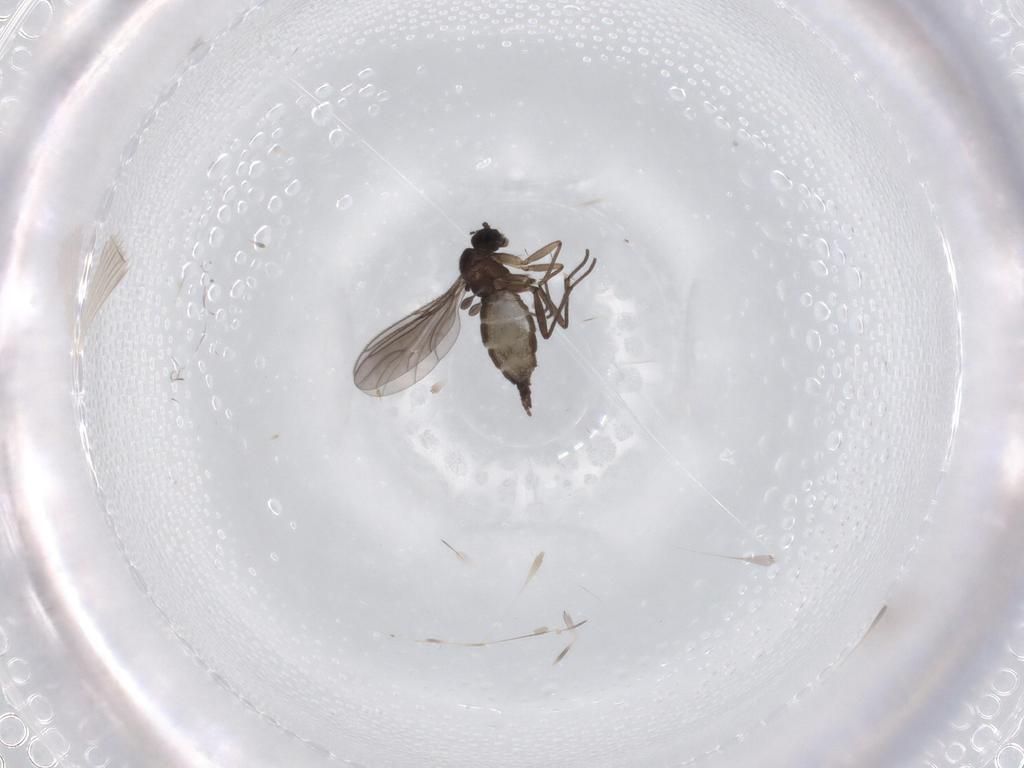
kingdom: Animalia
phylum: Arthropoda
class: Insecta
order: Diptera
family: Sciaridae
